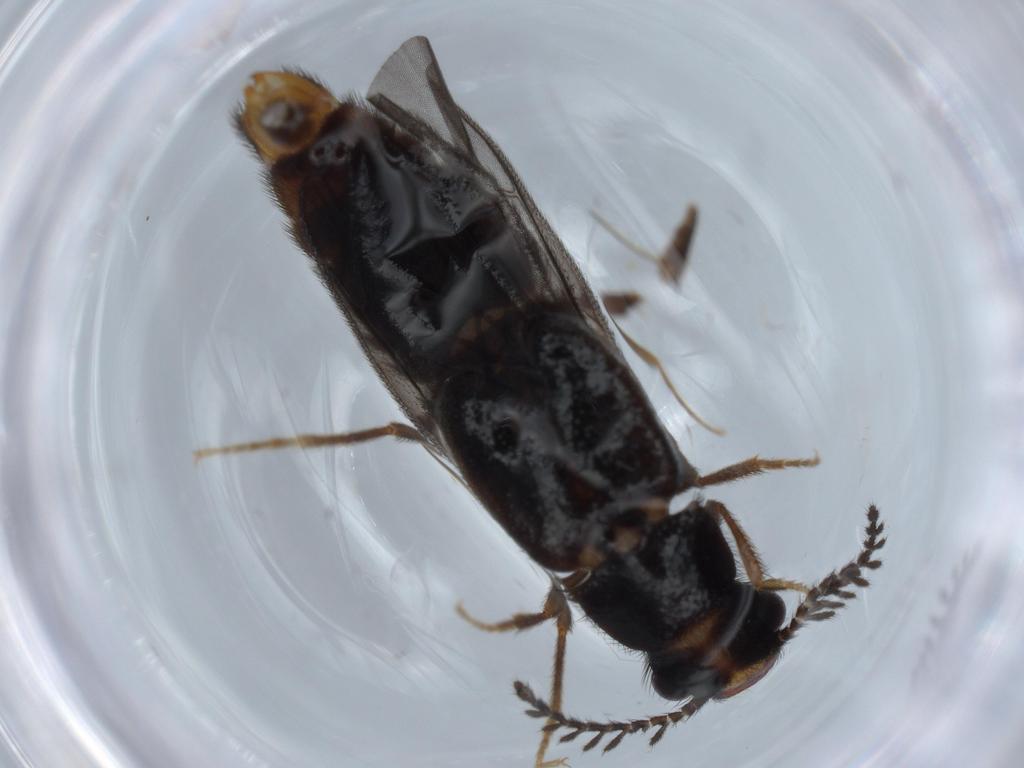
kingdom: Animalia
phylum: Arthropoda
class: Insecta
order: Coleoptera
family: Phengodidae
